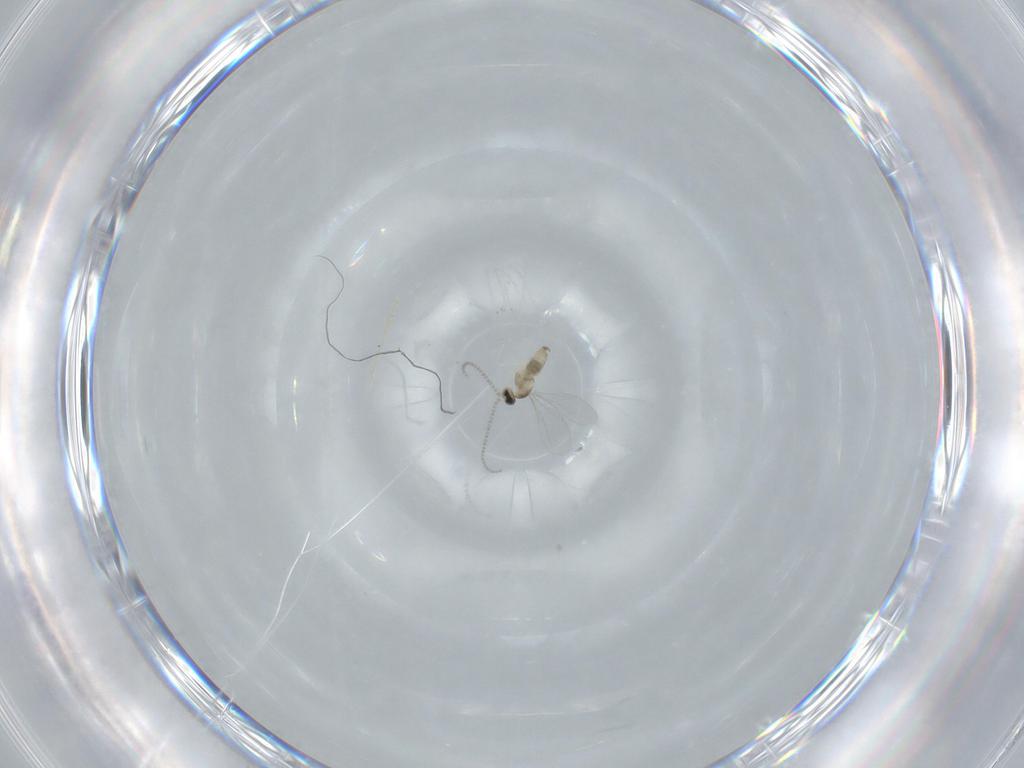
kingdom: Animalia
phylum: Arthropoda
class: Insecta
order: Diptera
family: Cecidomyiidae
